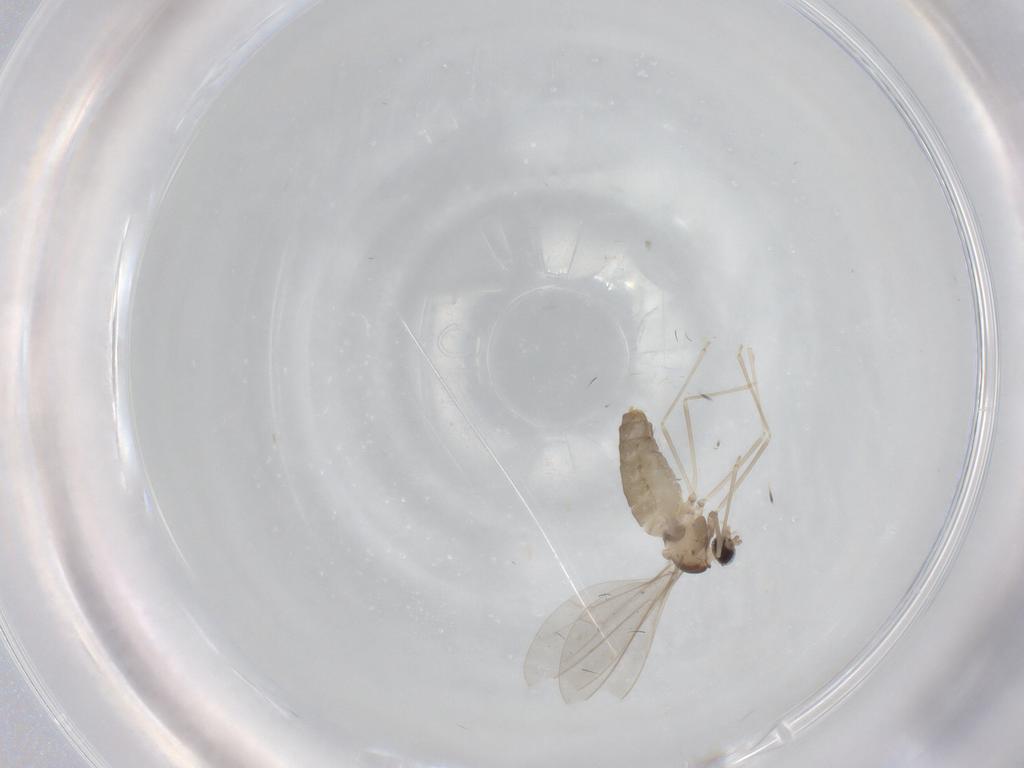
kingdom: Animalia
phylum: Arthropoda
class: Insecta
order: Diptera
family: Cecidomyiidae
